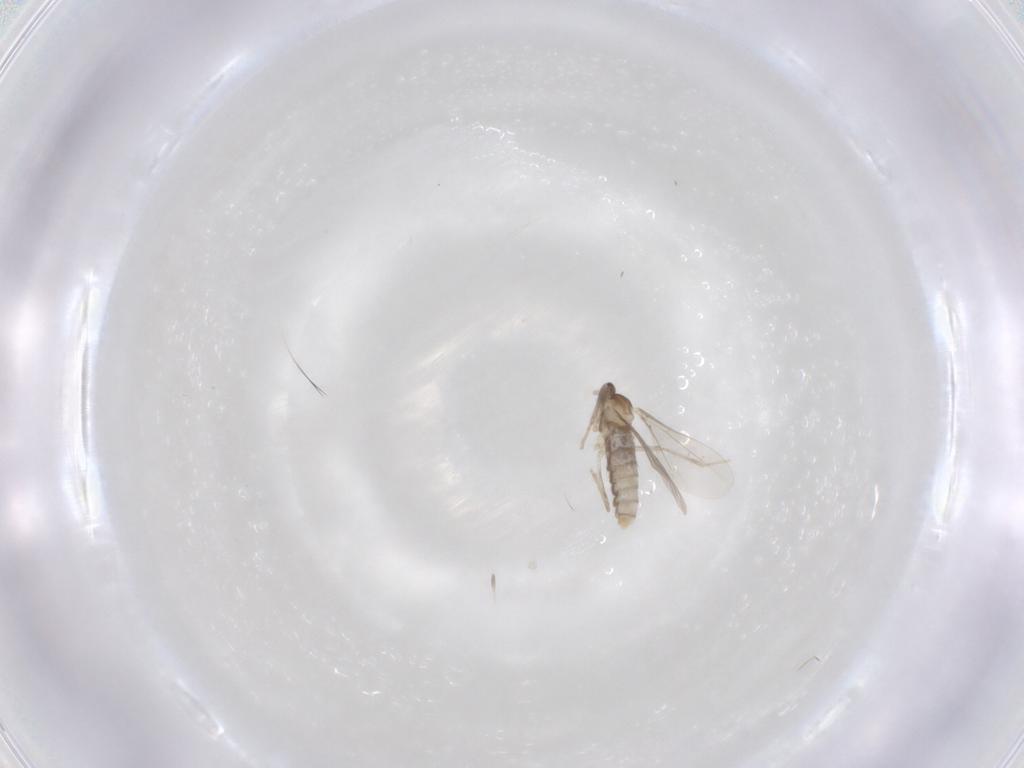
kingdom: Animalia
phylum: Arthropoda
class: Insecta
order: Diptera
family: Cecidomyiidae
